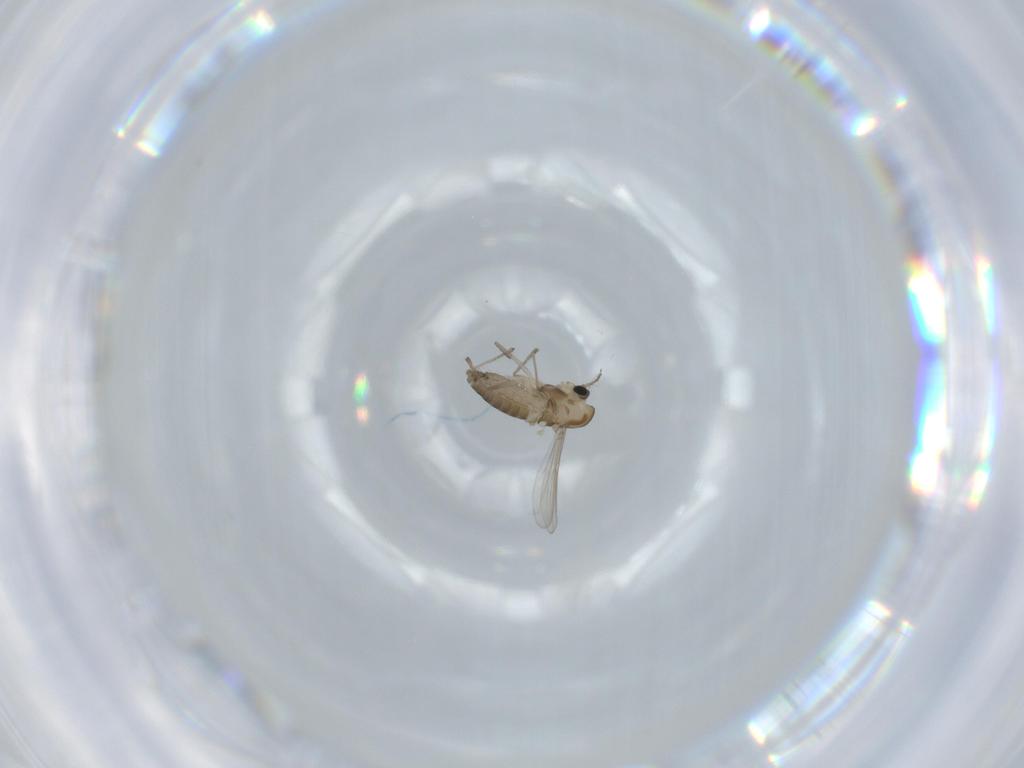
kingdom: Animalia
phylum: Arthropoda
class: Insecta
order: Diptera
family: Chironomidae
